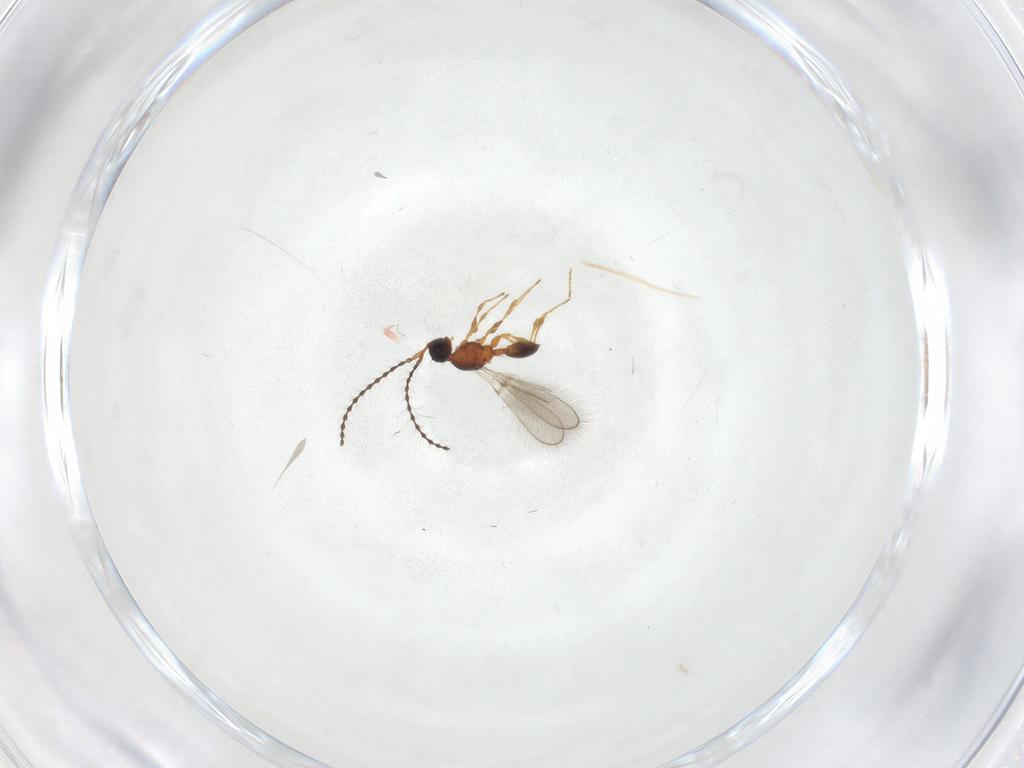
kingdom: Animalia
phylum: Arthropoda
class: Insecta
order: Hymenoptera
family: Diapriidae
